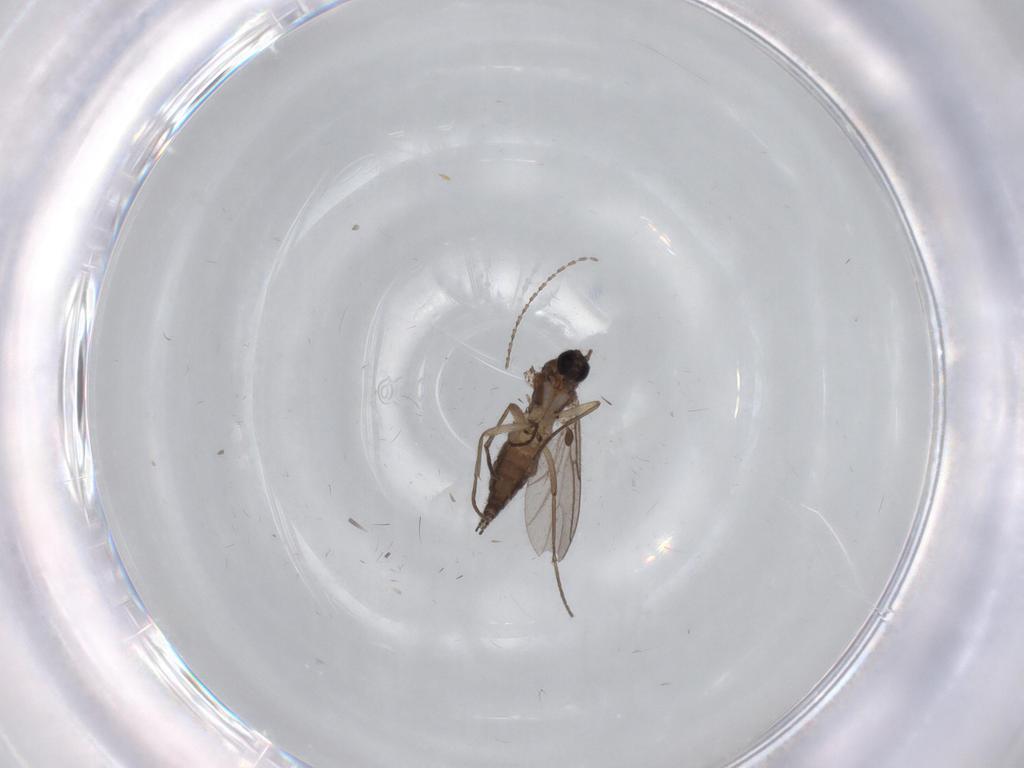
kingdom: Animalia
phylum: Arthropoda
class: Insecta
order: Diptera
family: Sciaridae
